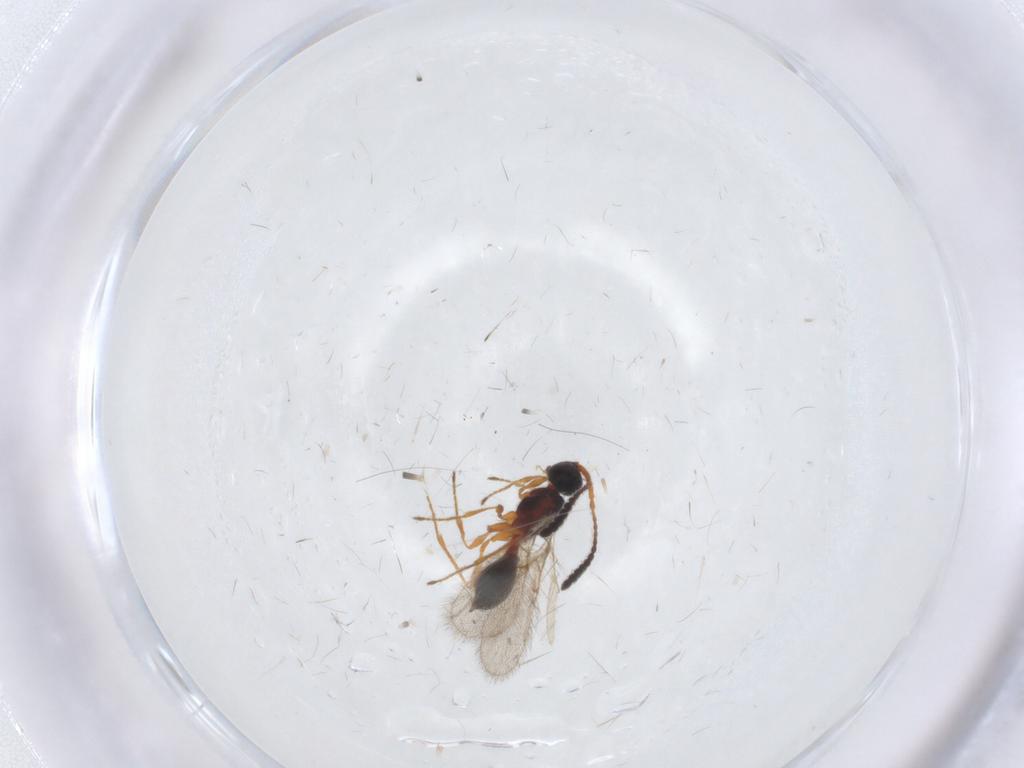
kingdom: Animalia
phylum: Arthropoda
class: Insecta
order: Hymenoptera
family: Diapriidae
